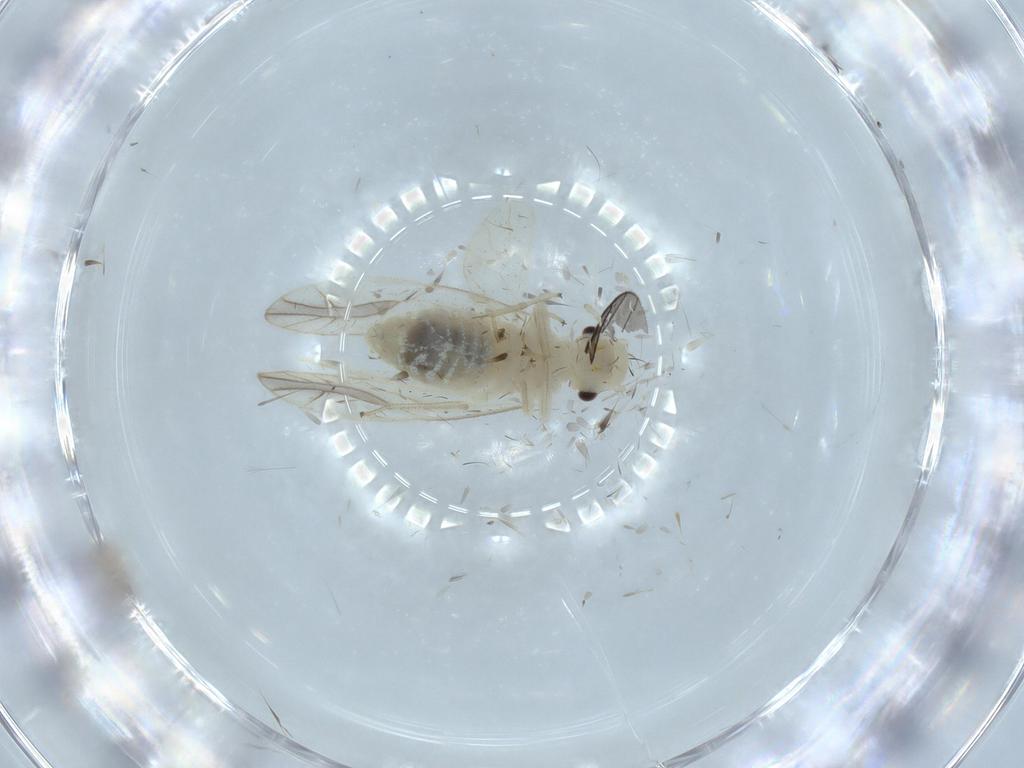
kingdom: Animalia
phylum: Arthropoda
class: Insecta
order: Psocodea
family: Caeciliusidae
